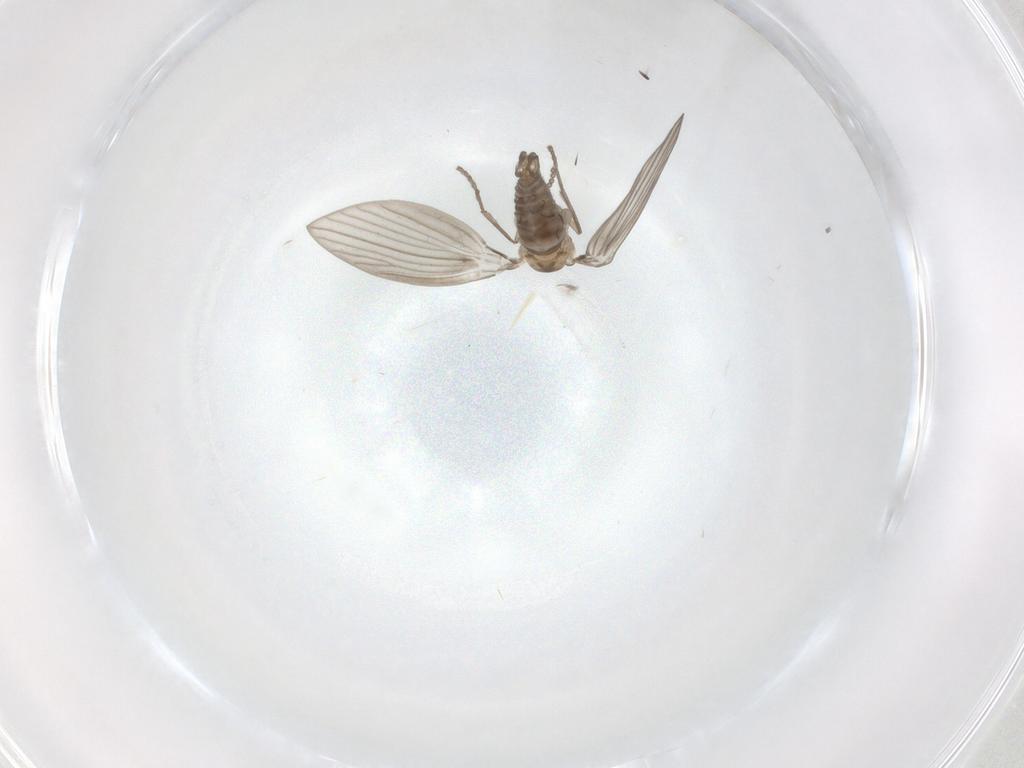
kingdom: Animalia
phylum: Arthropoda
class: Insecta
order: Diptera
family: Psychodidae
